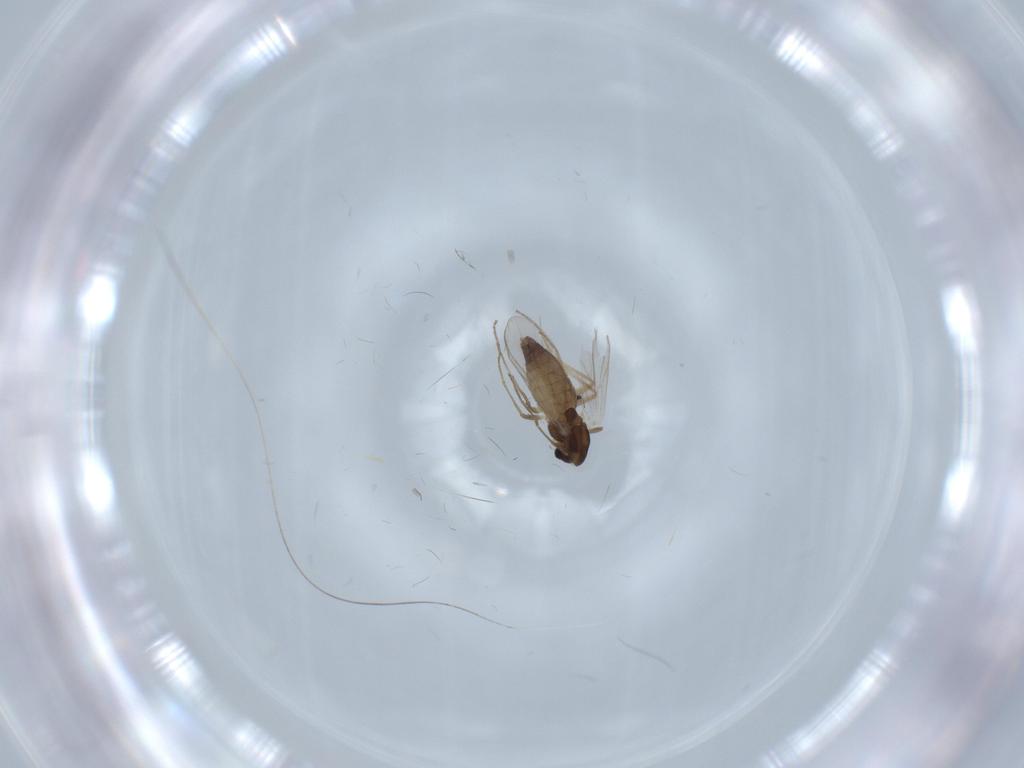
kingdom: Animalia
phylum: Arthropoda
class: Insecta
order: Diptera
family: Chironomidae
